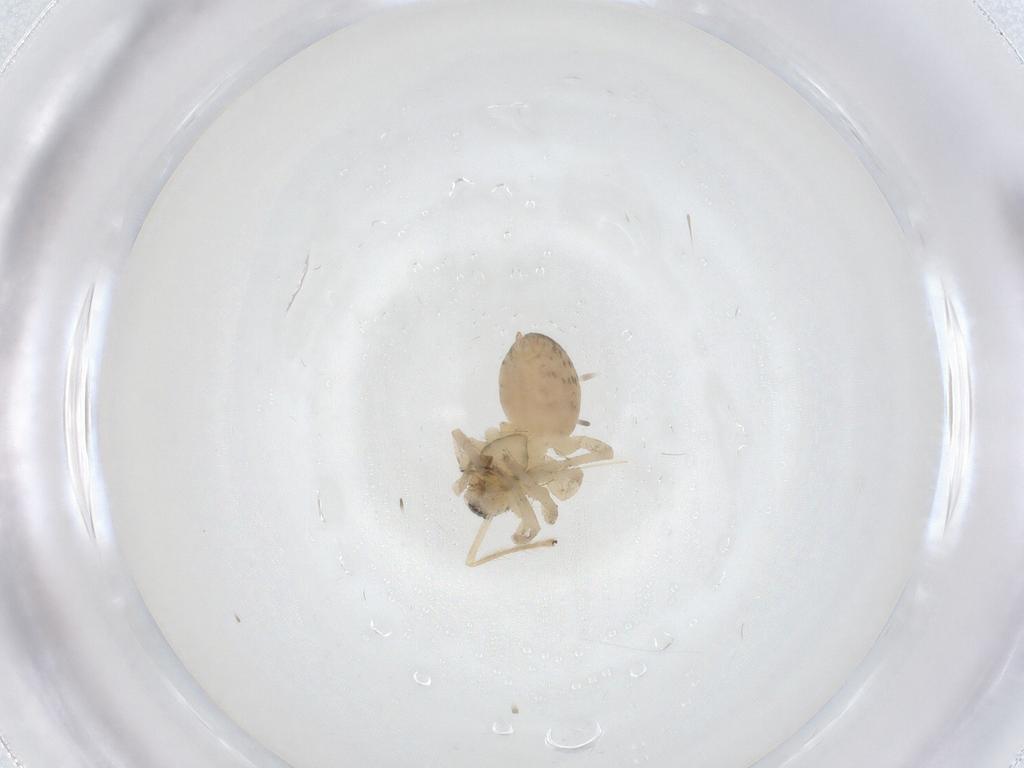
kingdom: Animalia
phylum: Arthropoda
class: Arachnida
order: Araneae
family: Anyphaenidae
